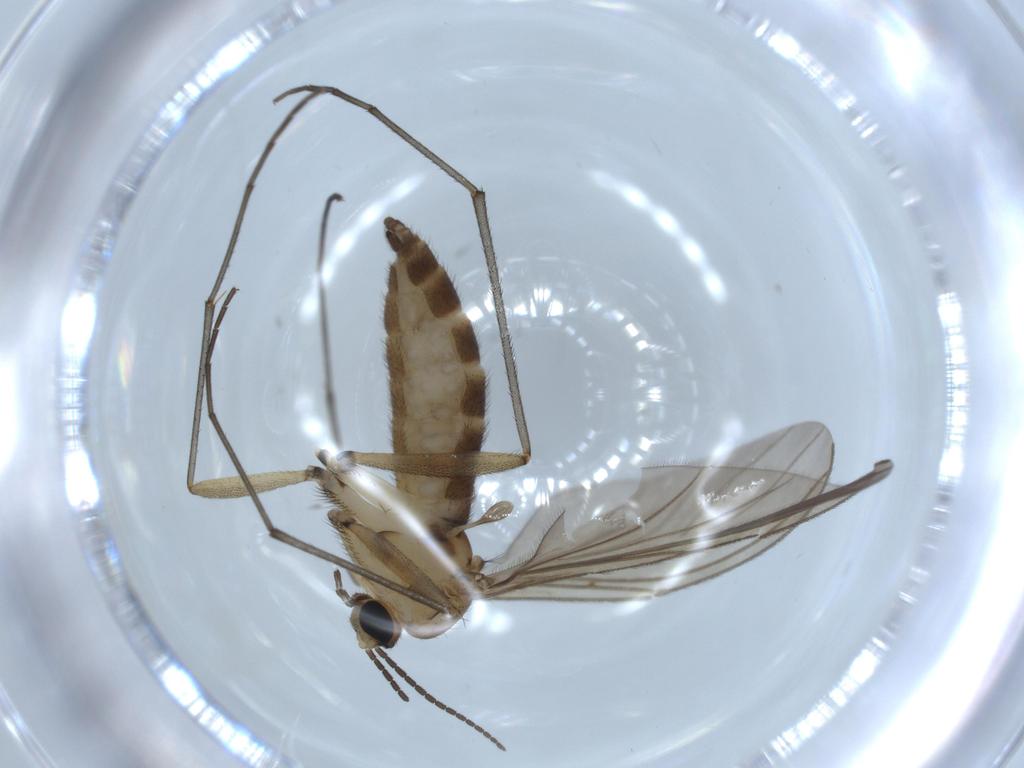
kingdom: Animalia
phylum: Arthropoda
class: Insecta
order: Diptera
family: Sciaridae
